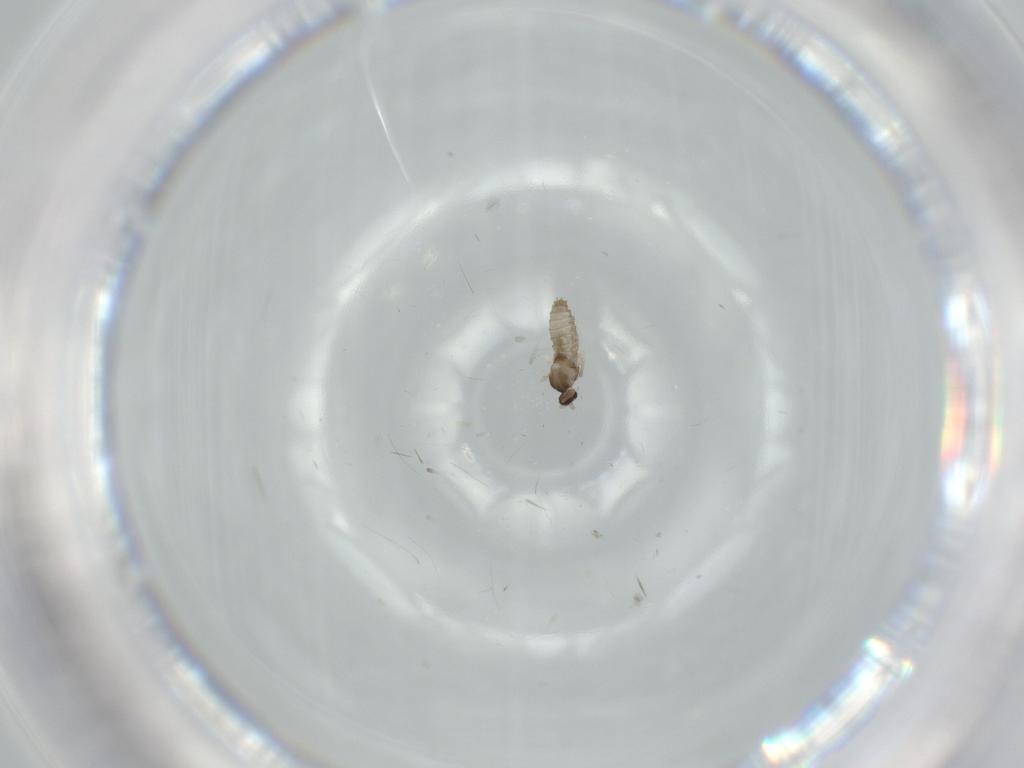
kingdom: Animalia
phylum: Arthropoda
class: Insecta
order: Diptera
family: Cecidomyiidae
